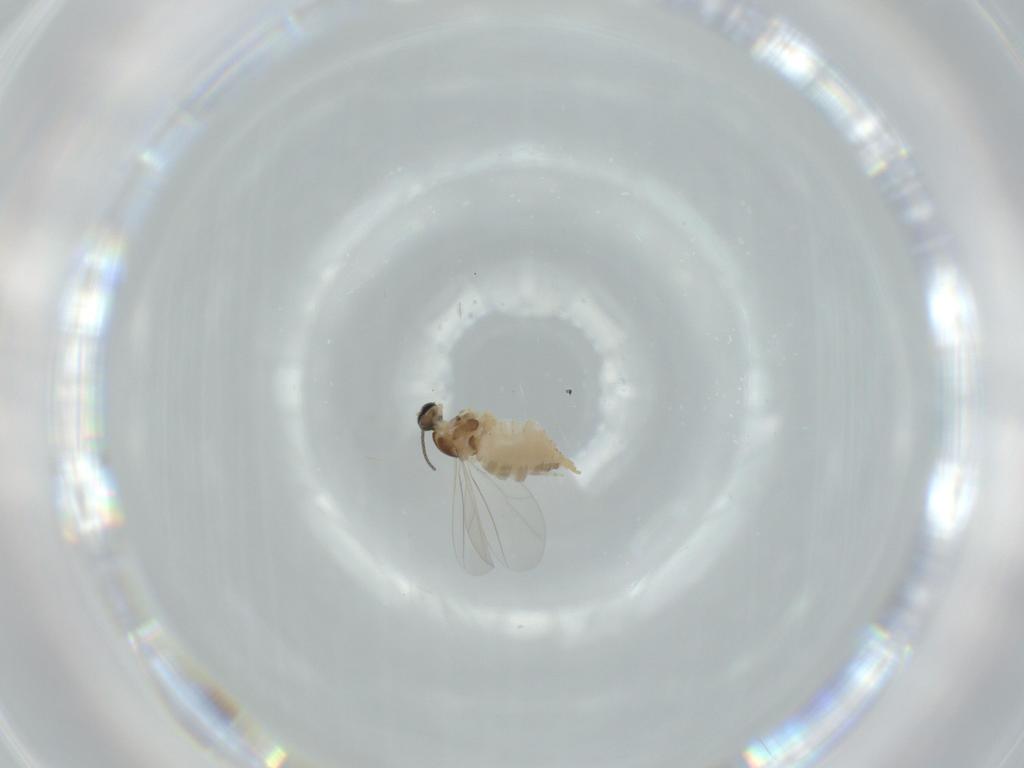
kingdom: Animalia
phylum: Arthropoda
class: Insecta
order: Diptera
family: Cecidomyiidae
